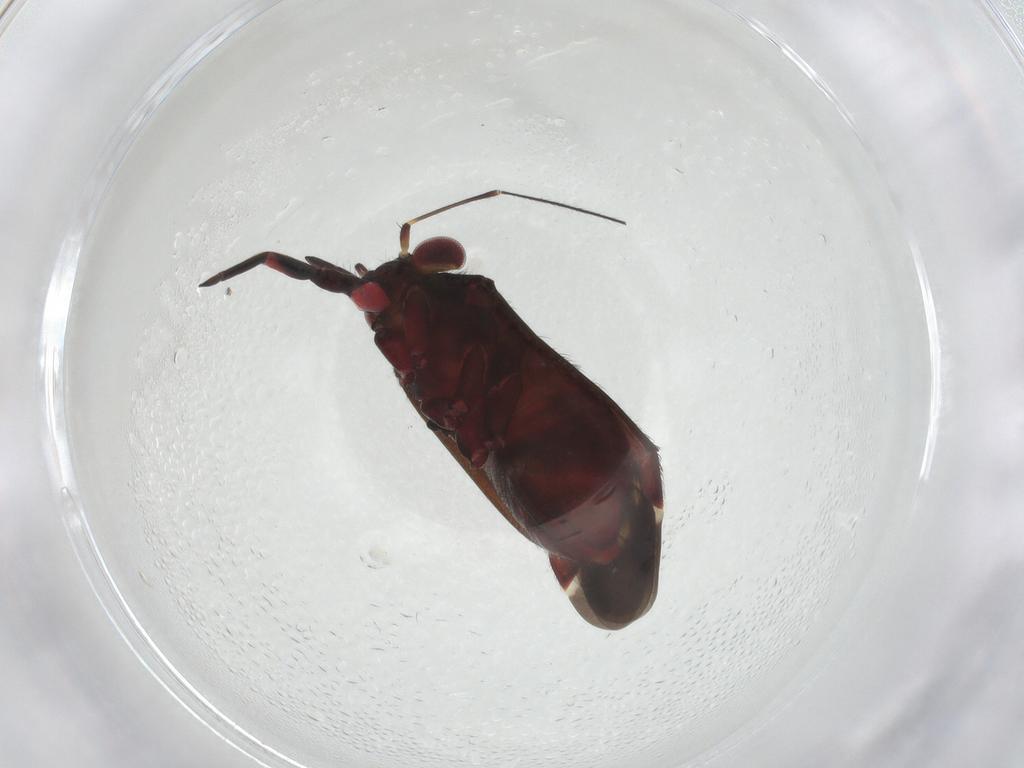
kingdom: Animalia
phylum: Arthropoda
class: Insecta
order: Hemiptera
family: Miridae
